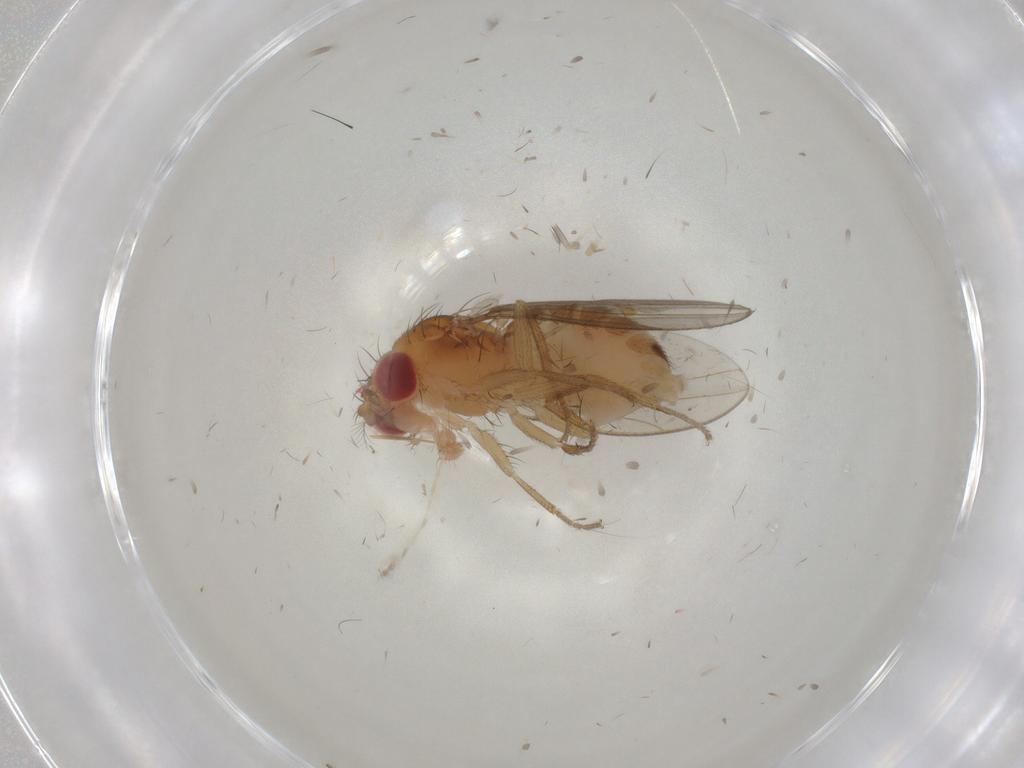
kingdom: Animalia
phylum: Arthropoda
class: Insecta
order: Diptera
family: Drosophilidae
